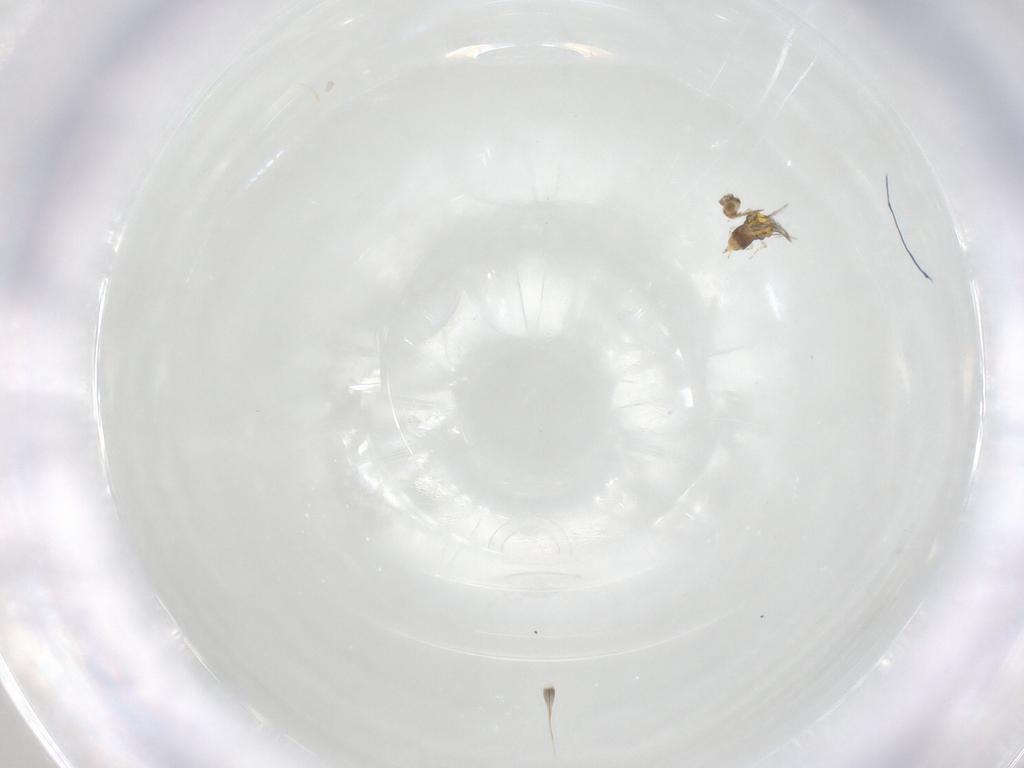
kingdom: Animalia
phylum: Arthropoda
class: Insecta
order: Hymenoptera
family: Aphelinidae
